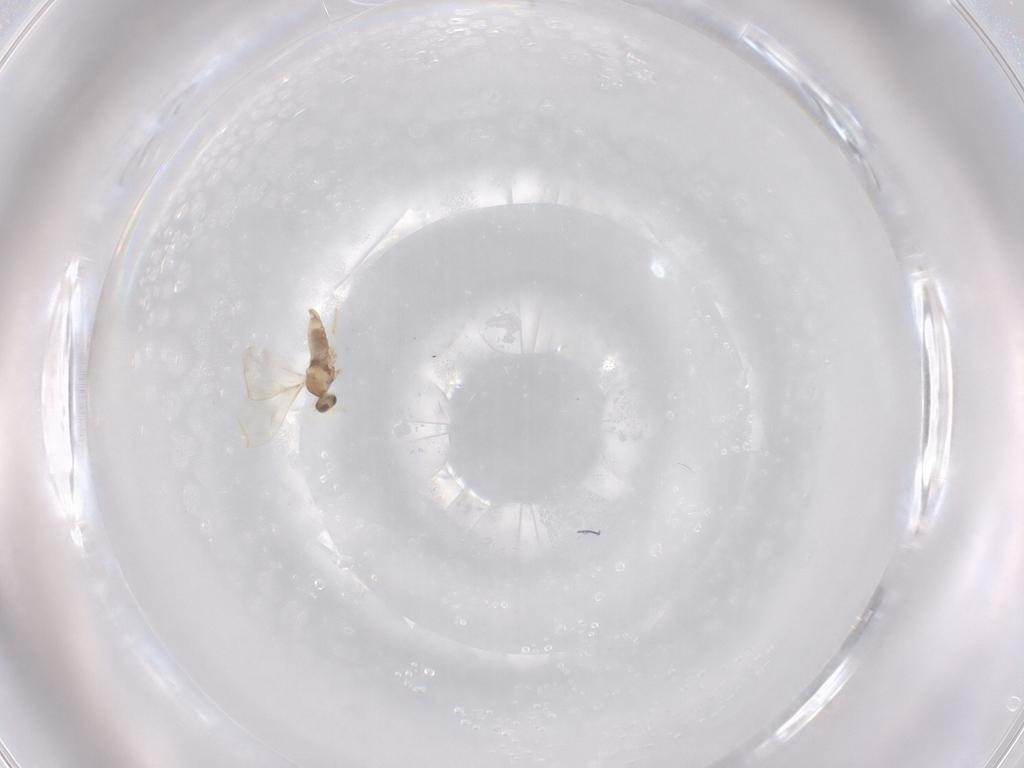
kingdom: Animalia
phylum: Arthropoda
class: Insecta
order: Diptera
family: Cecidomyiidae
